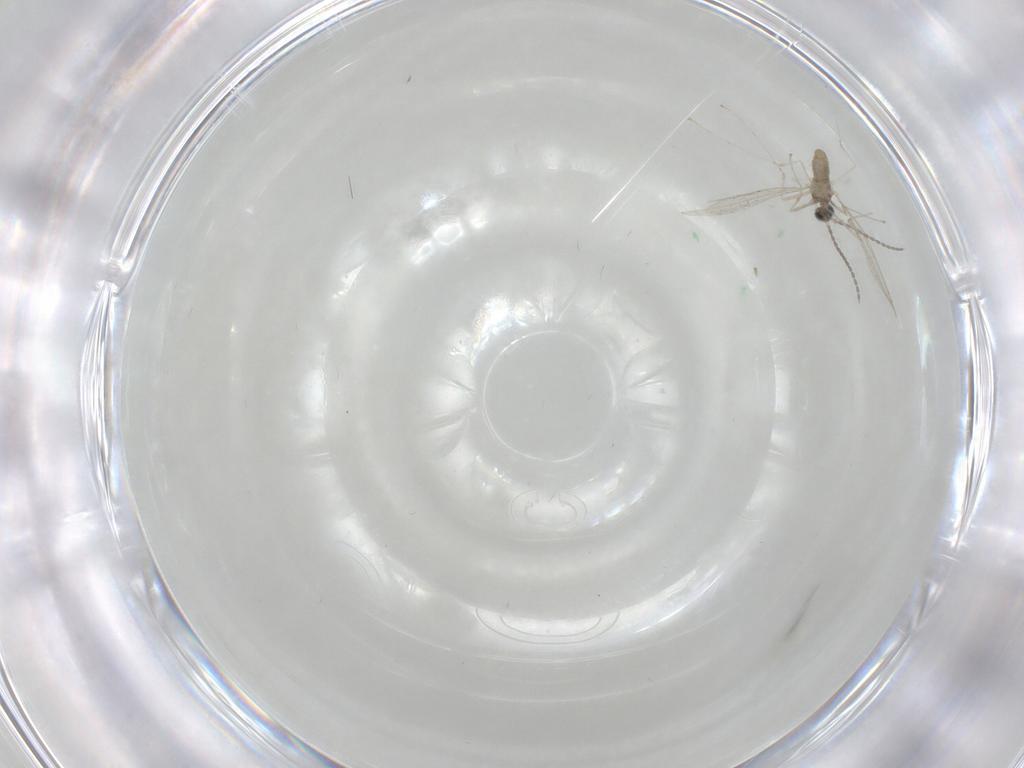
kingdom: Animalia
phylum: Arthropoda
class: Insecta
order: Diptera
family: Cecidomyiidae
